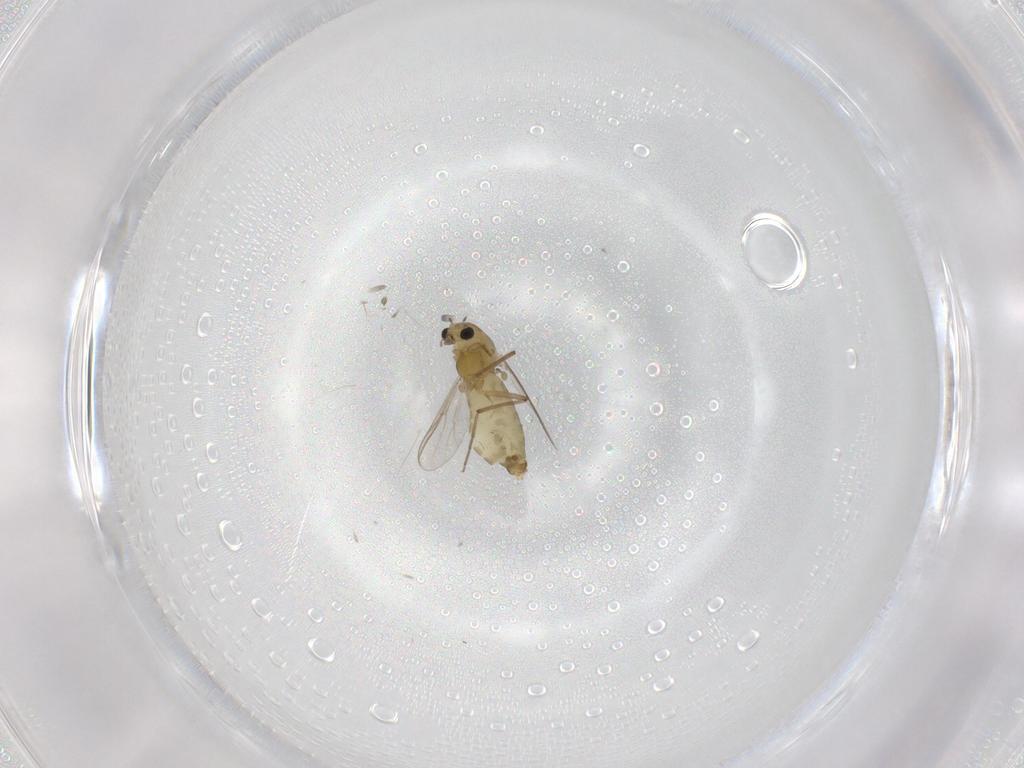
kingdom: Animalia
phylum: Arthropoda
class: Insecta
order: Diptera
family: Chironomidae
